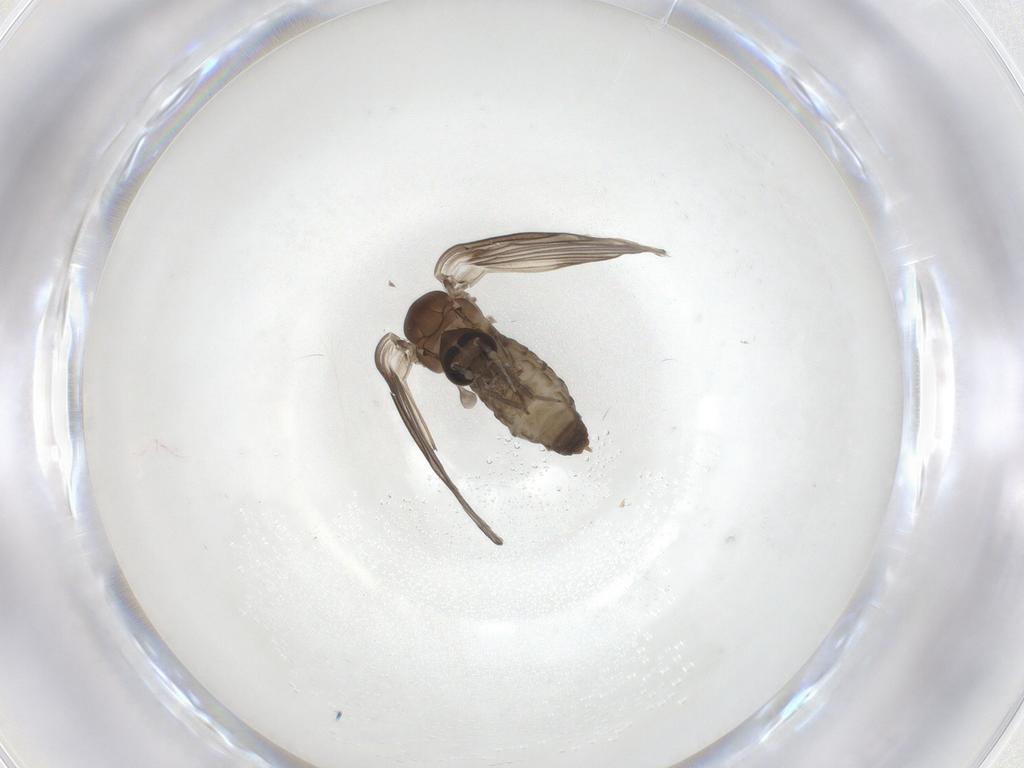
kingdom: Animalia
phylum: Arthropoda
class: Insecta
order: Diptera
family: Psychodidae
